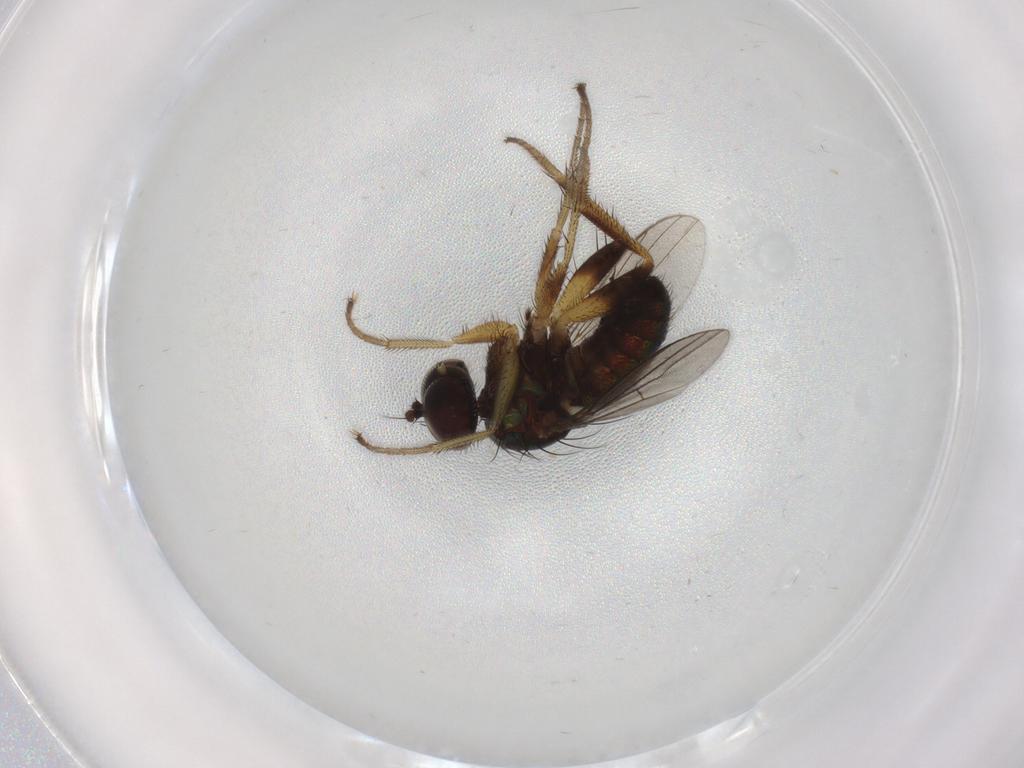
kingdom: Animalia
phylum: Arthropoda
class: Insecta
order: Diptera
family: Dolichopodidae
